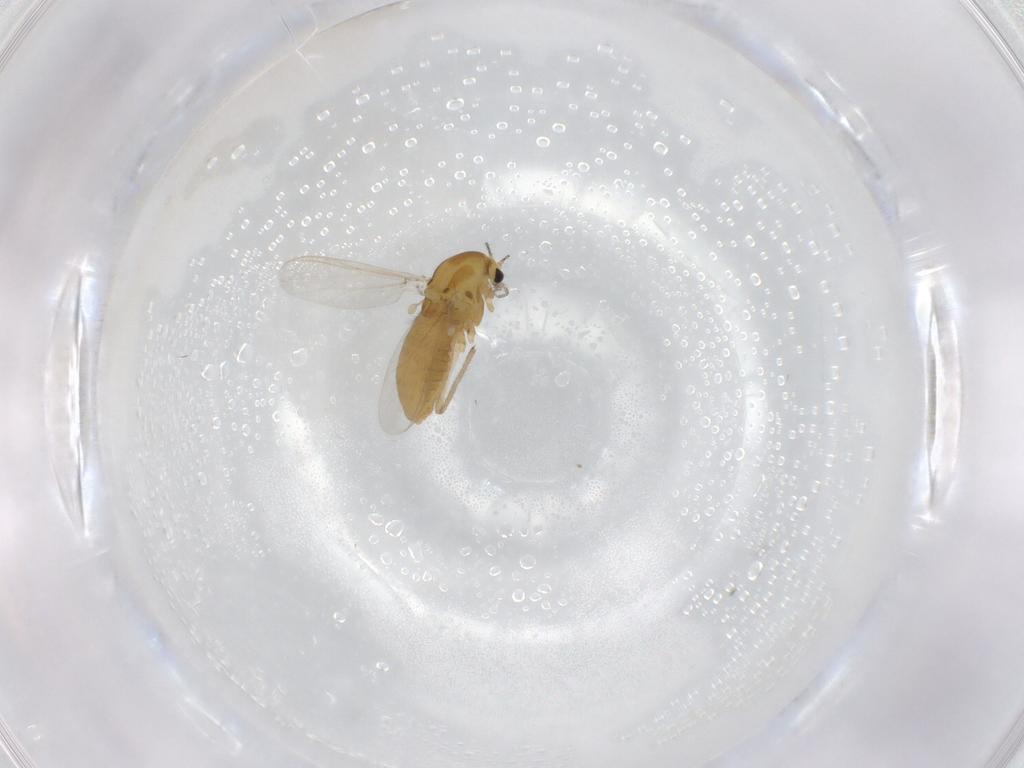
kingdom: Animalia
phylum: Arthropoda
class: Insecta
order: Diptera
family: Chironomidae
